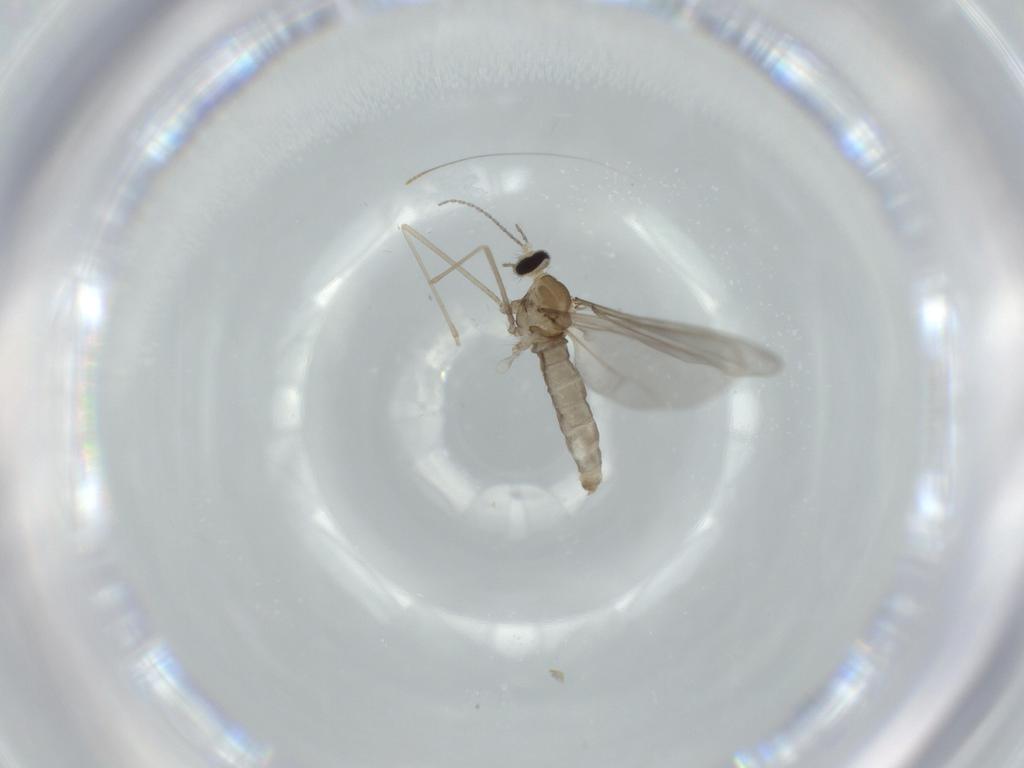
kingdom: Animalia
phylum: Arthropoda
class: Insecta
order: Diptera
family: Cecidomyiidae
